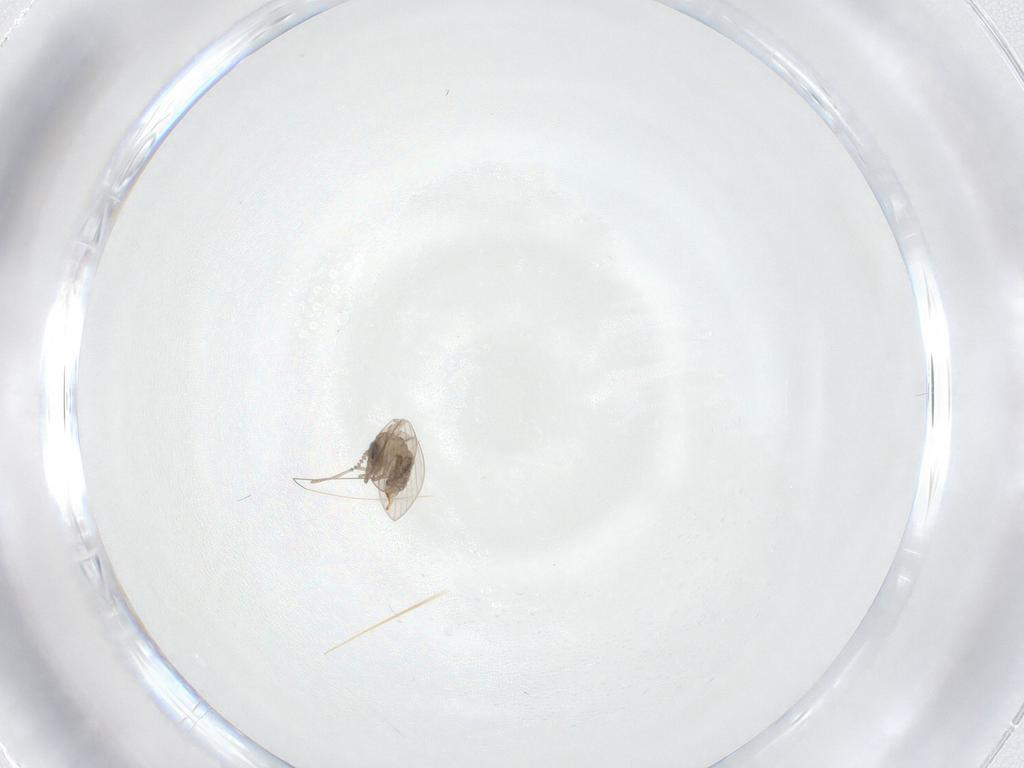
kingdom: Animalia
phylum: Arthropoda
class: Insecta
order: Diptera
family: Psychodidae
